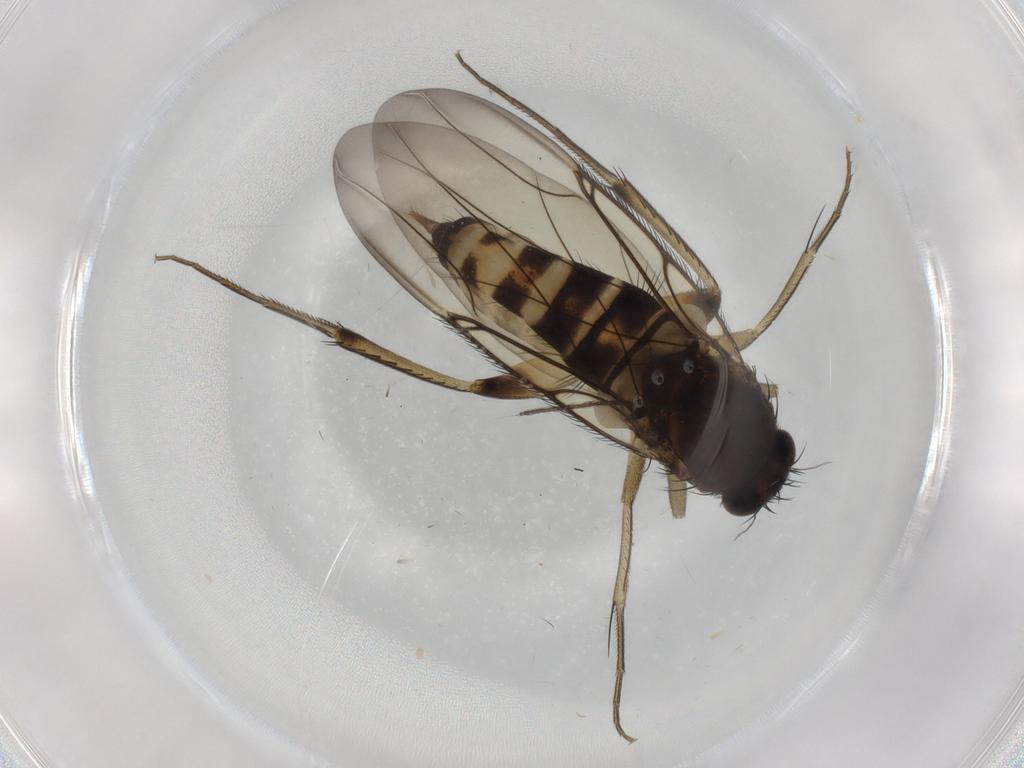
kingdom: Animalia
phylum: Arthropoda
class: Insecta
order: Diptera
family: Phoridae
